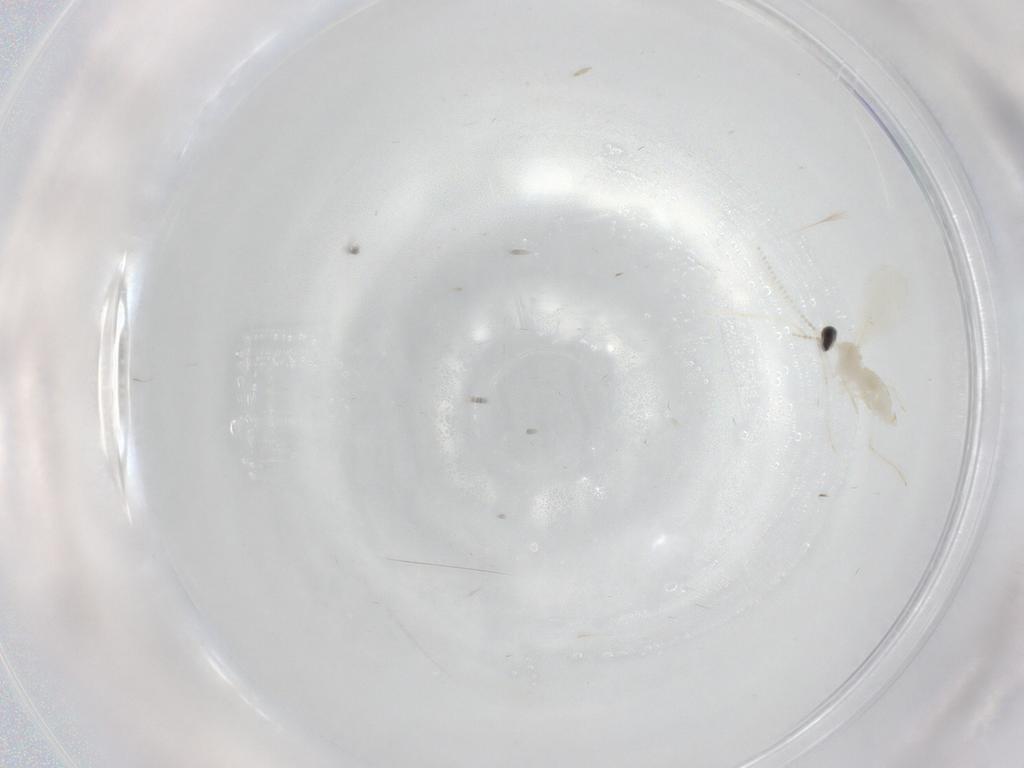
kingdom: Animalia
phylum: Arthropoda
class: Insecta
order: Diptera
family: Cecidomyiidae
